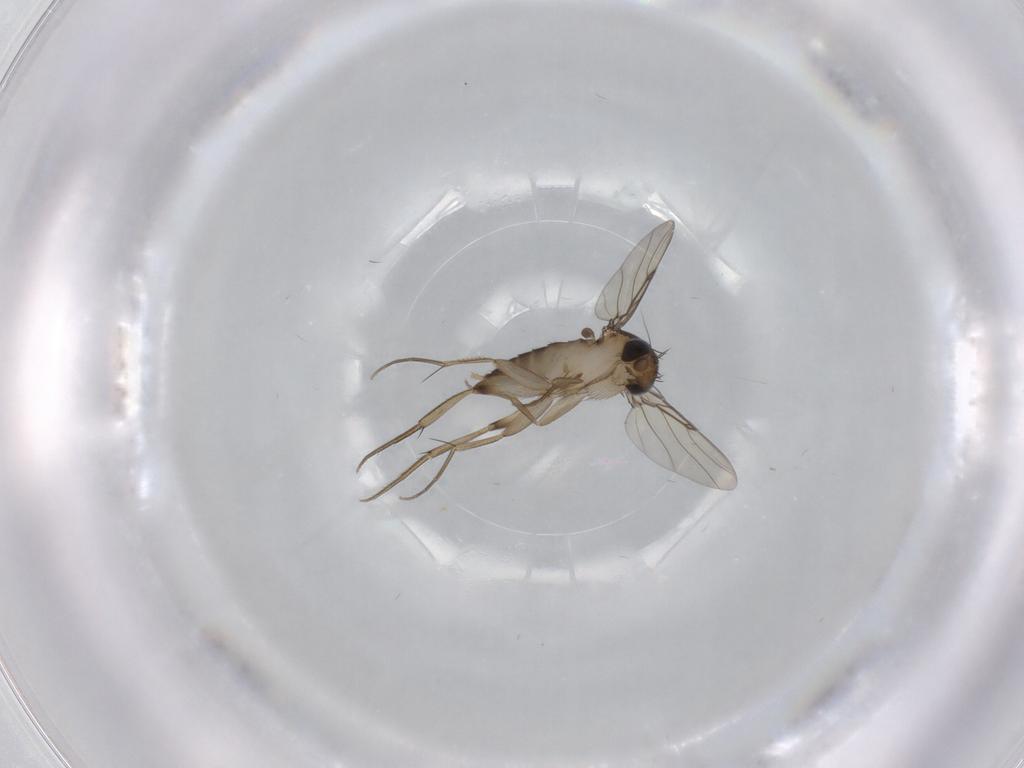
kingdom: Animalia
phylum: Arthropoda
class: Insecta
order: Diptera
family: Phoridae
